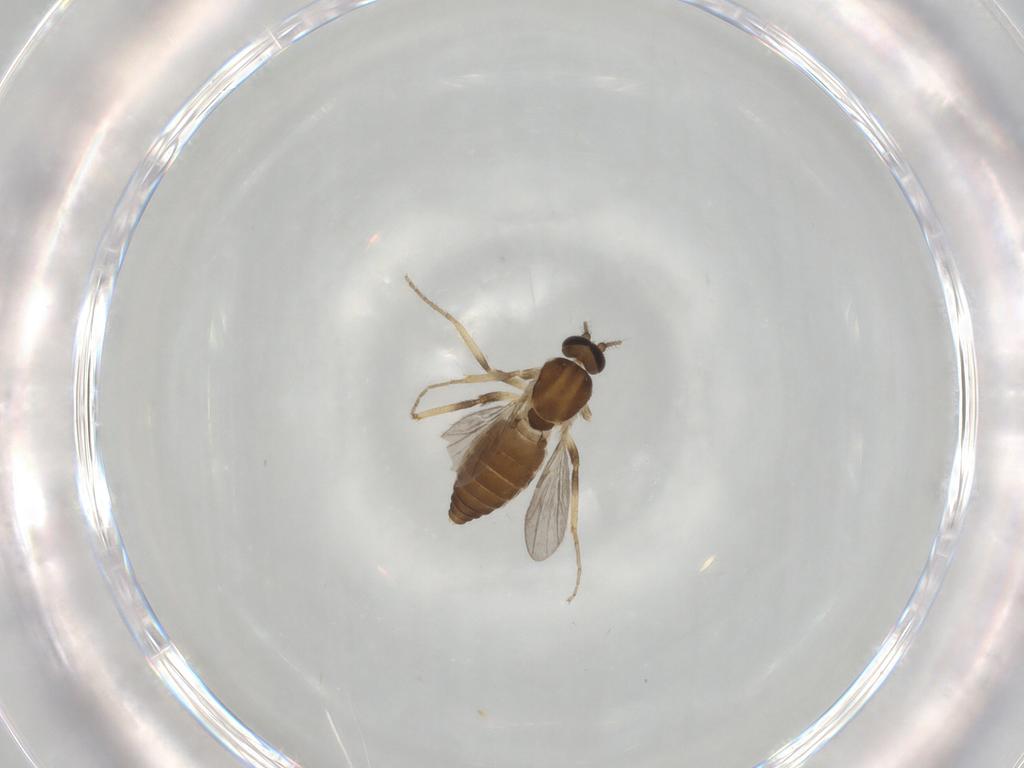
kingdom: Animalia
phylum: Arthropoda
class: Insecta
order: Diptera
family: Ceratopogonidae
